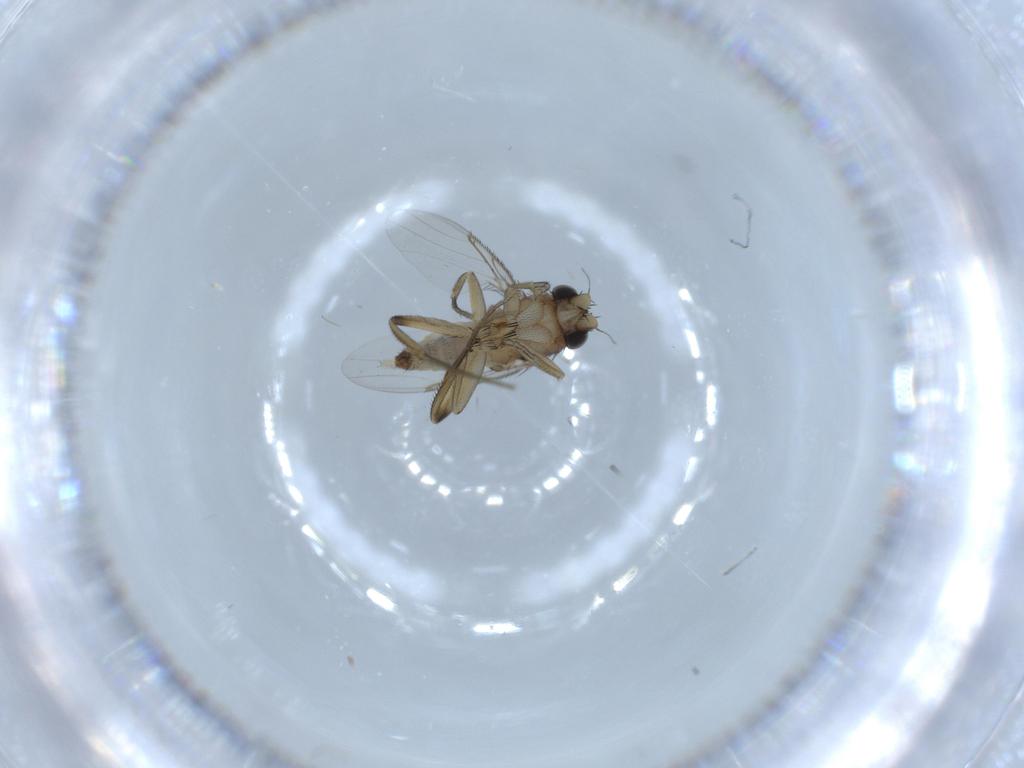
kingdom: Animalia
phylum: Arthropoda
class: Insecta
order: Diptera
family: Phoridae
